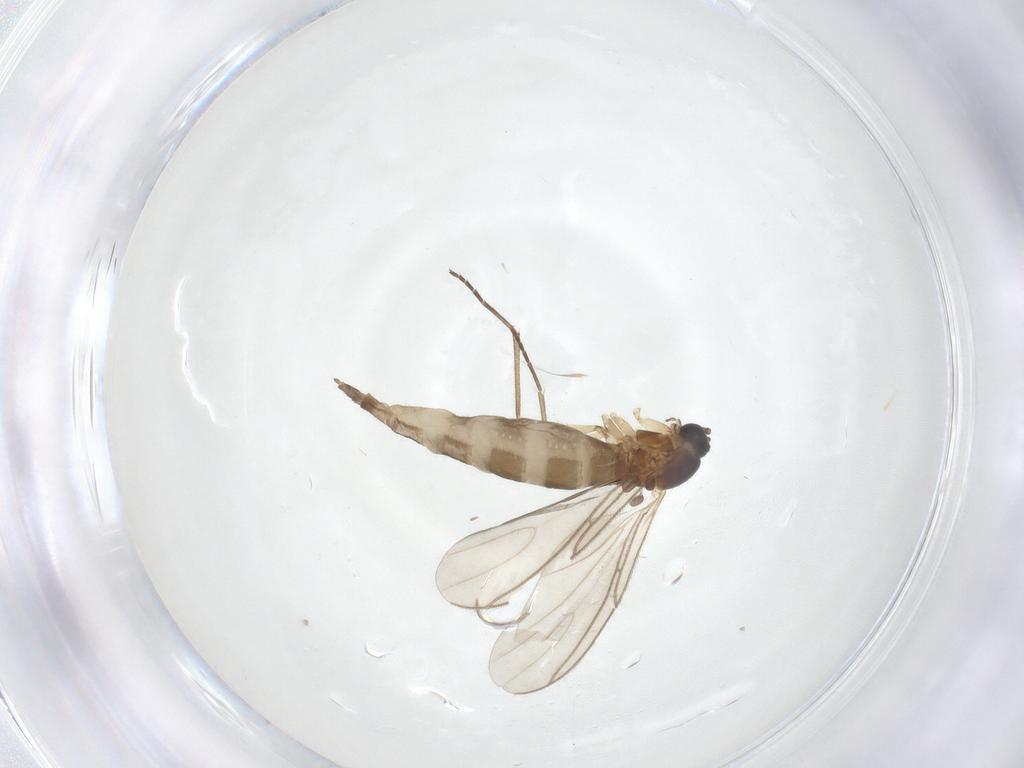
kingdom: Animalia
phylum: Arthropoda
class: Insecta
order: Diptera
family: Sciaridae
